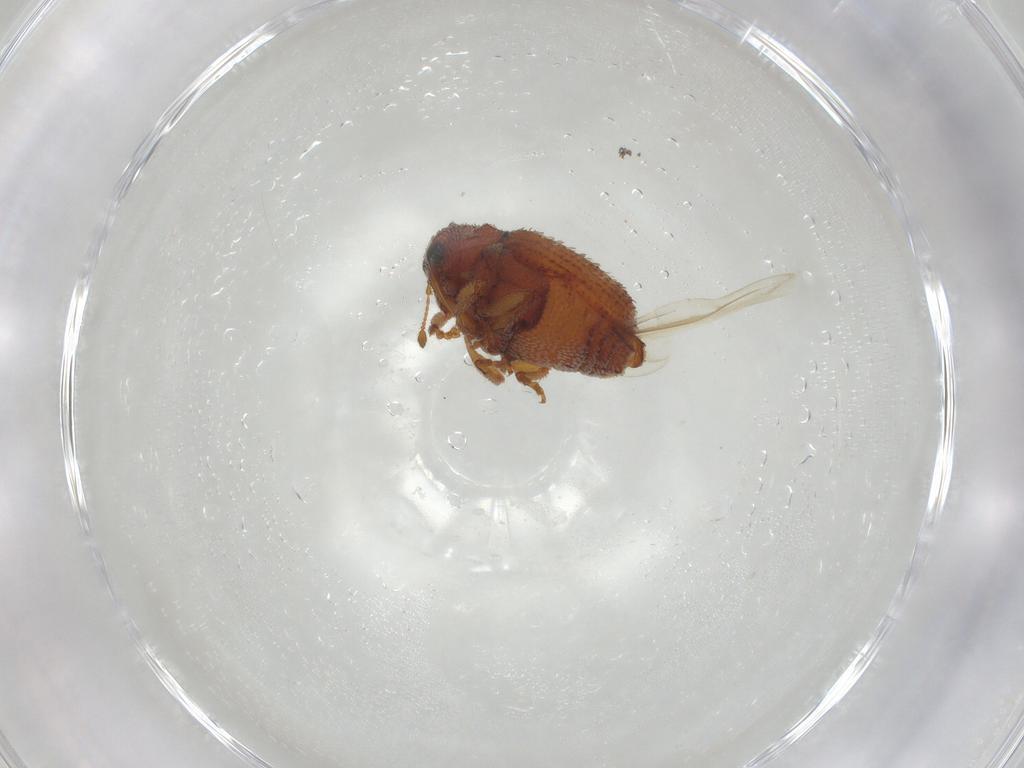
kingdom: Animalia
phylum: Arthropoda
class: Insecta
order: Coleoptera
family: Curculionidae
